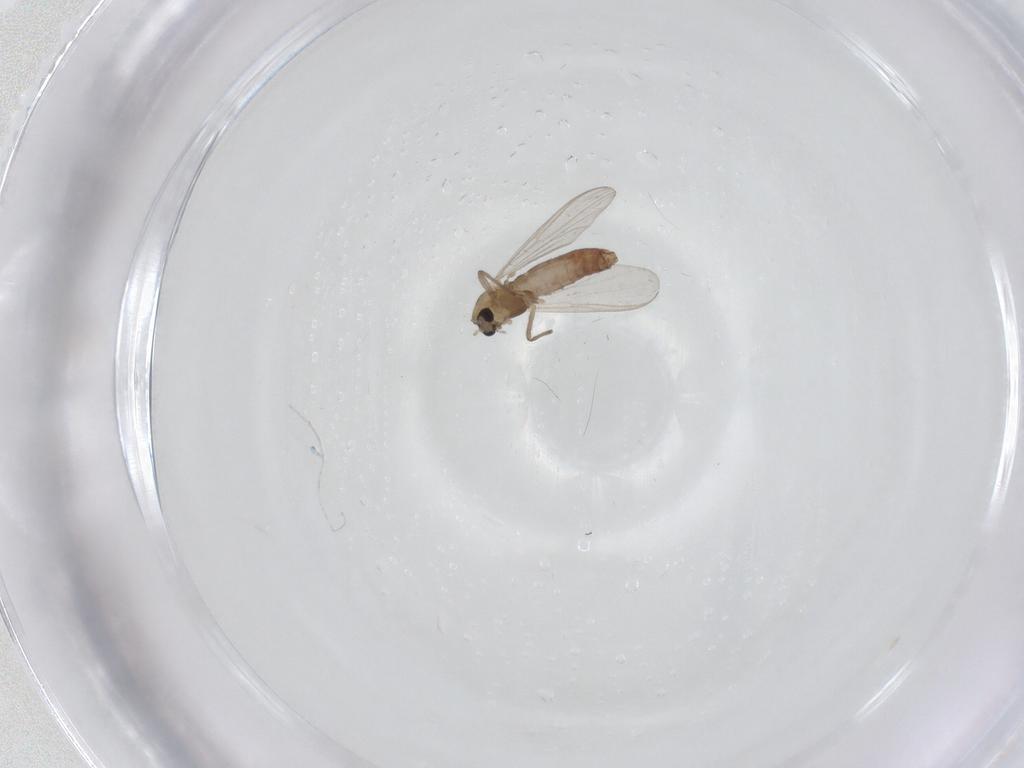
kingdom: Animalia
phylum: Arthropoda
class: Insecta
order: Diptera
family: Chironomidae
